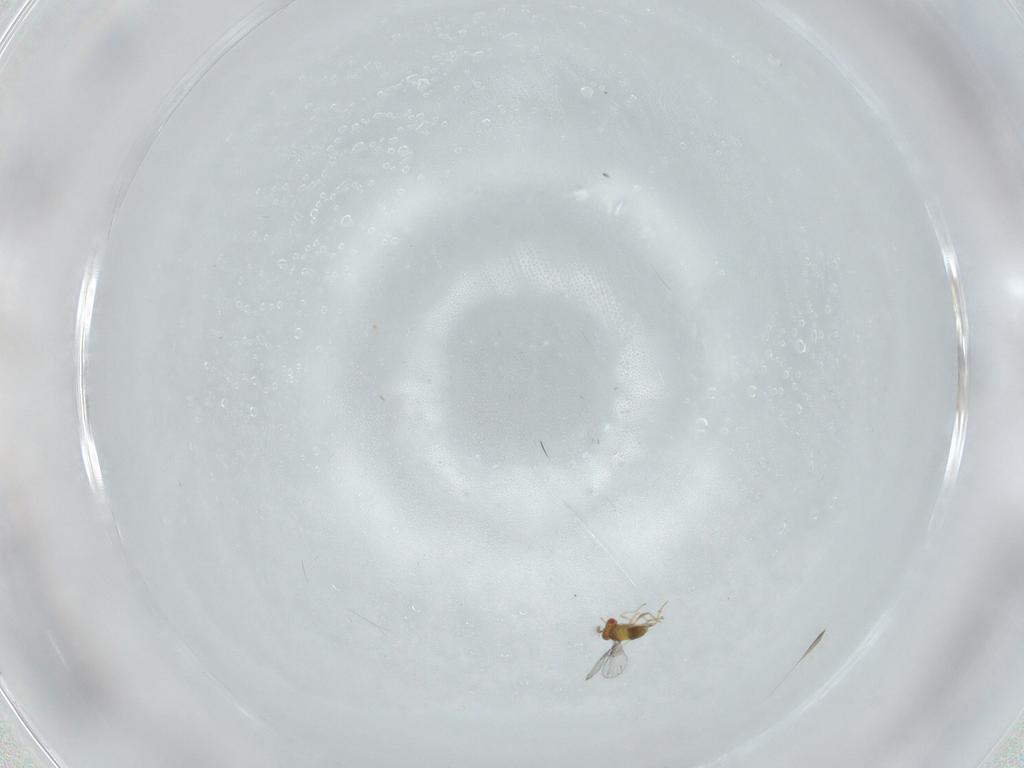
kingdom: Animalia
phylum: Arthropoda
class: Insecta
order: Hymenoptera
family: Trichogrammatidae
